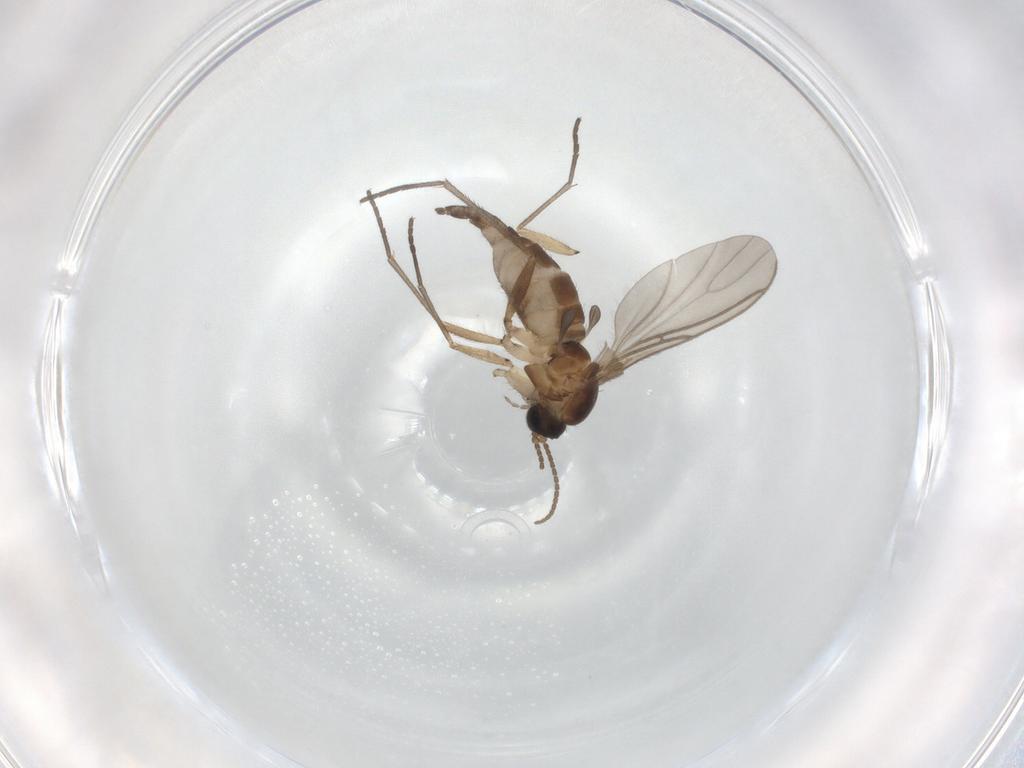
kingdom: Animalia
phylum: Arthropoda
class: Insecta
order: Diptera
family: Sciaridae
